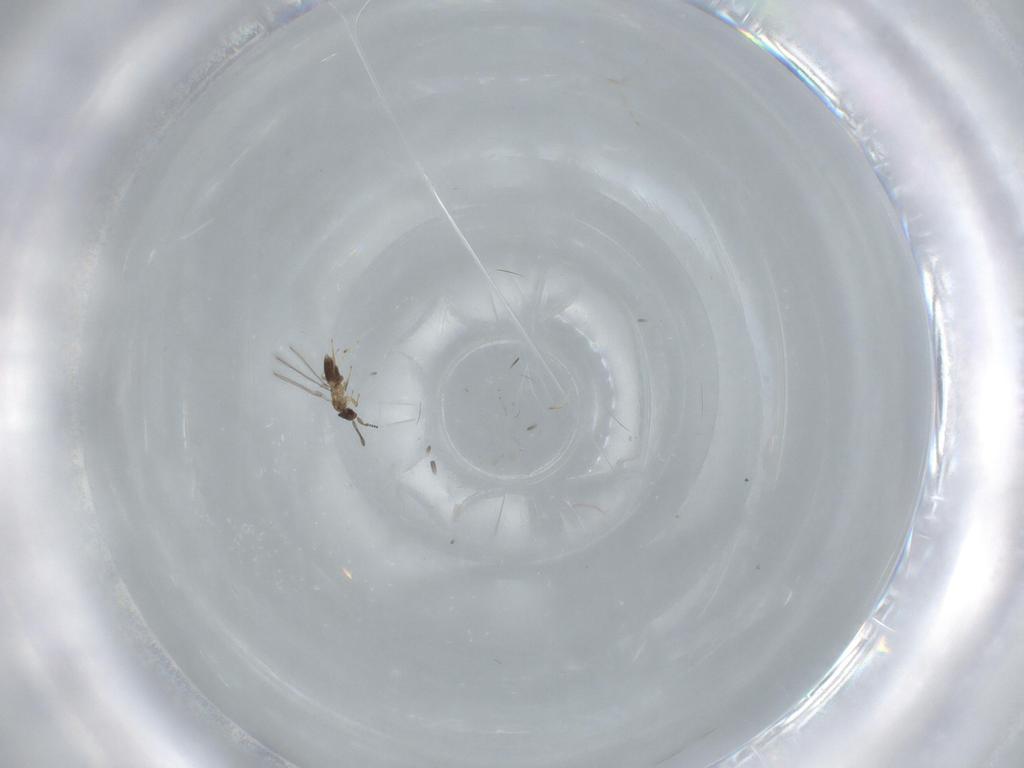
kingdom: Animalia
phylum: Arthropoda
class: Insecta
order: Hymenoptera
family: Mymaridae
